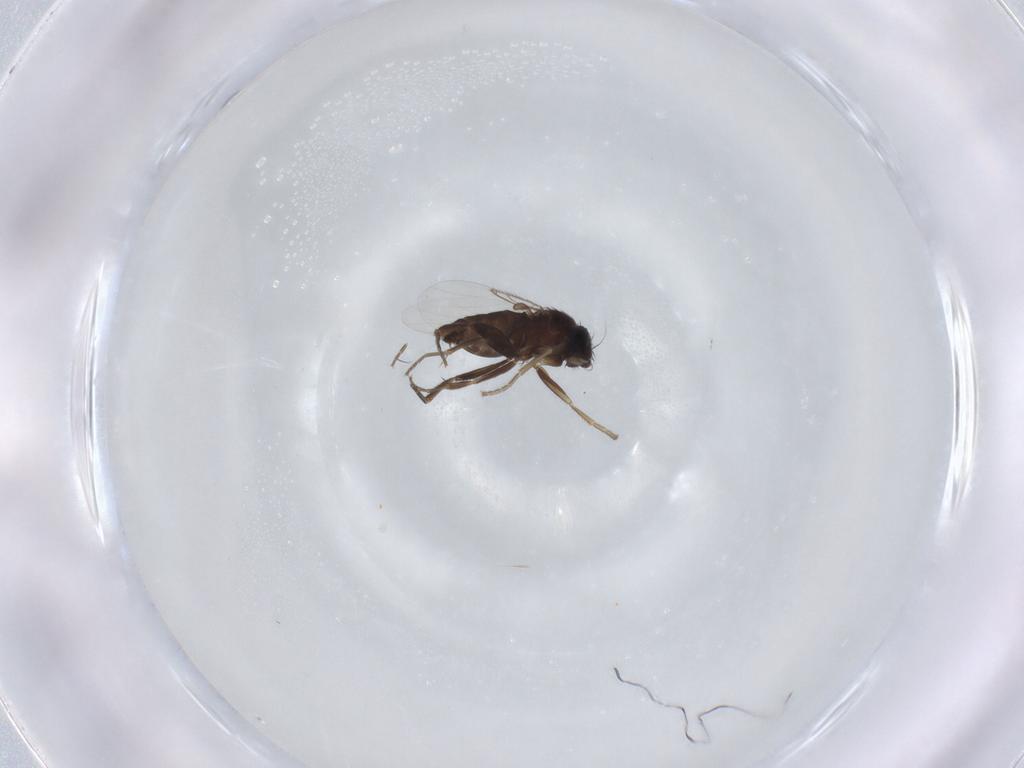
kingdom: Animalia
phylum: Arthropoda
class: Insecta
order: Diptera
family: Phoridae
